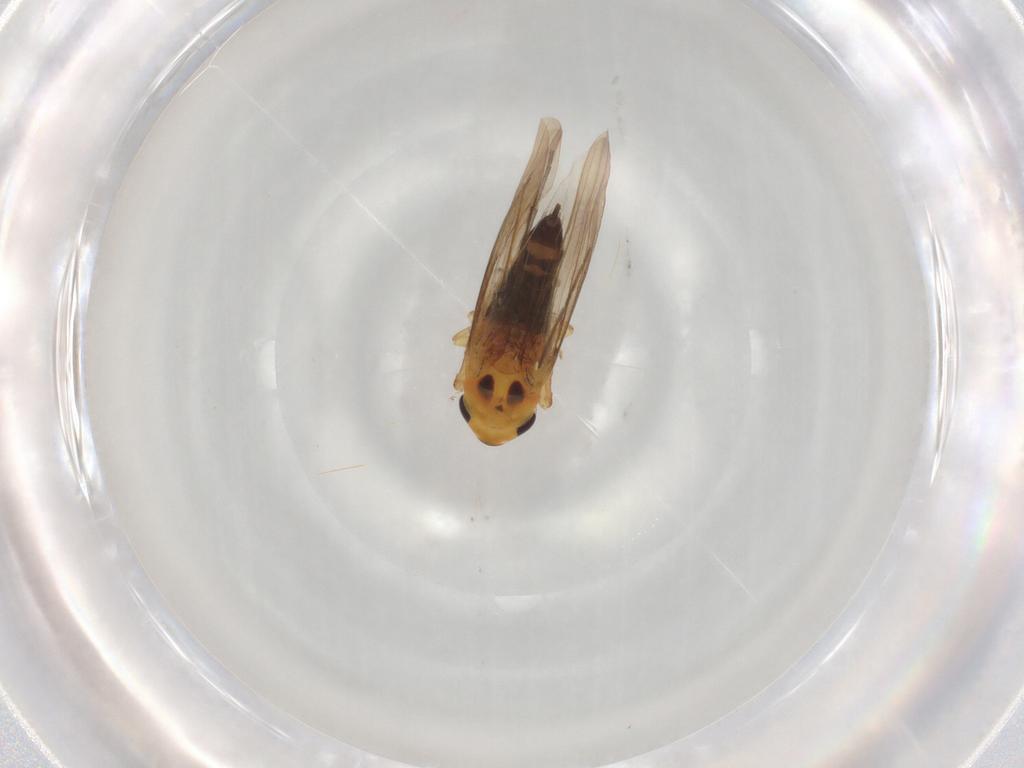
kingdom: Animalia
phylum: Arthropoda
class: Insecta
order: Hemiptera
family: Cicadellidae
